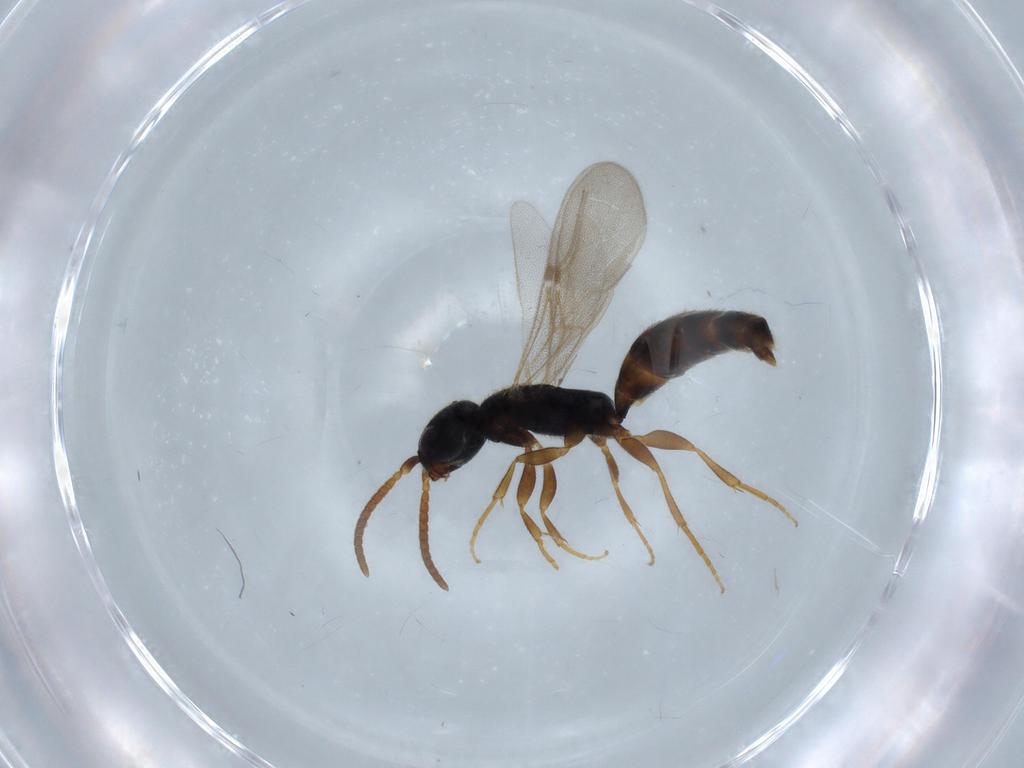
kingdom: Animalia
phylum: Arthropoda
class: Insecta
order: Hymenoptera
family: Bethylidae
